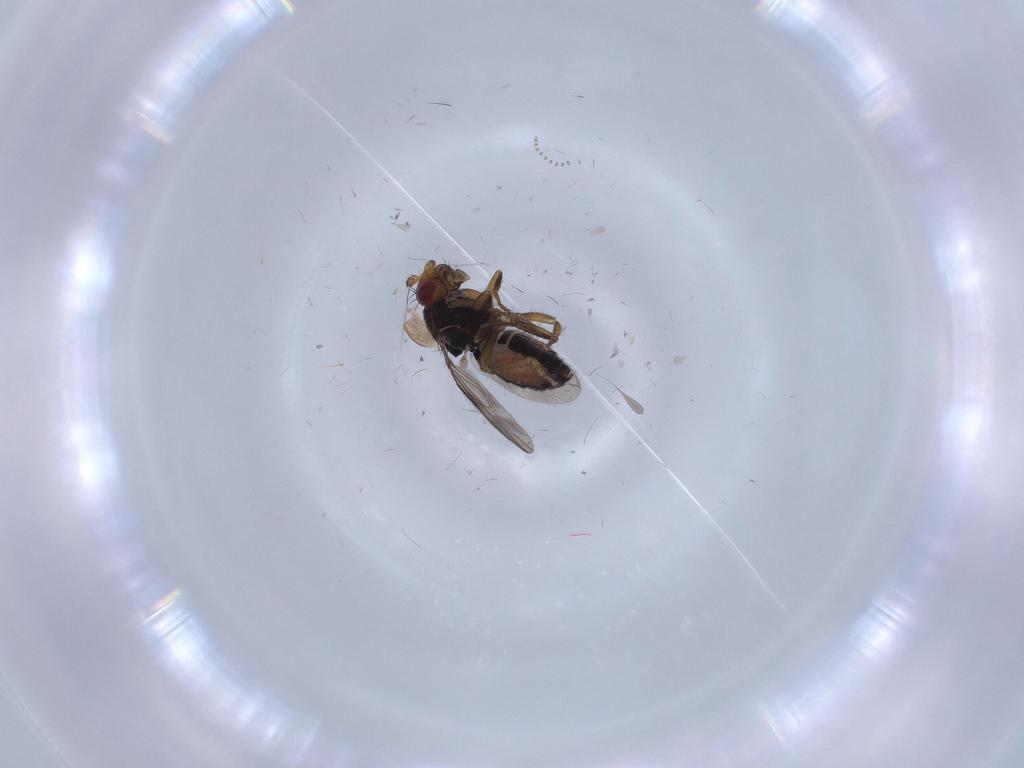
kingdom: Animalia
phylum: Arthropoda
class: Insecta
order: Diptera
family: Sphaeroceridae
